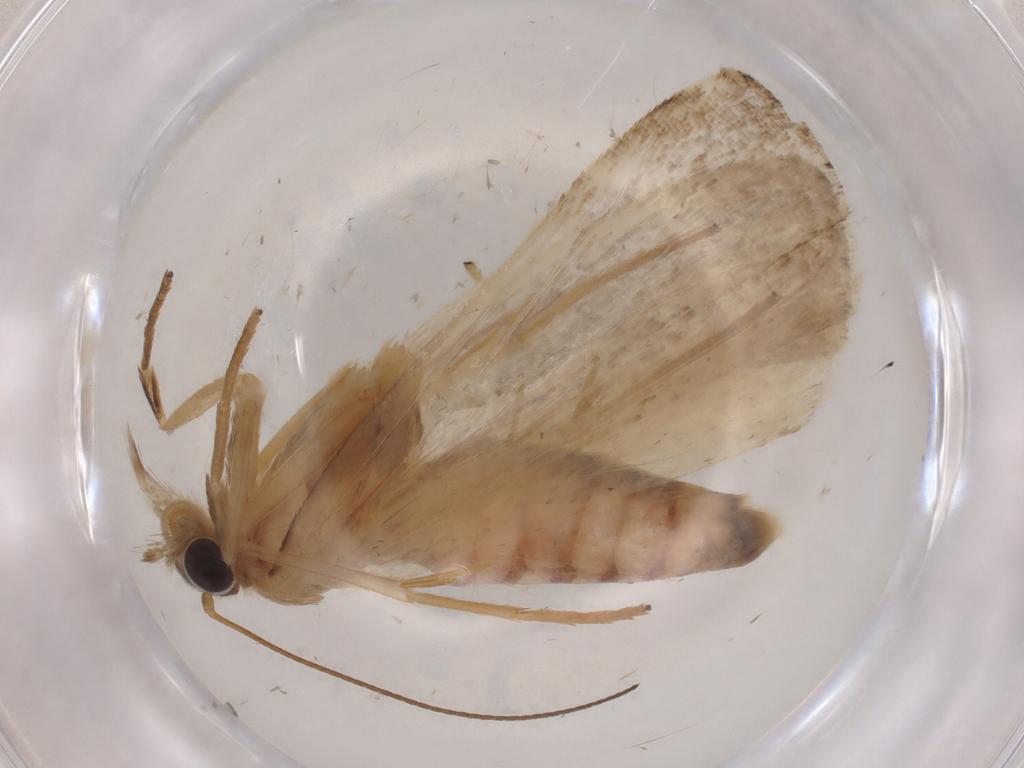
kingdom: Animalia
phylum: Arthropoda
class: Insecta
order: Lepidoptera
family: Crambidae
